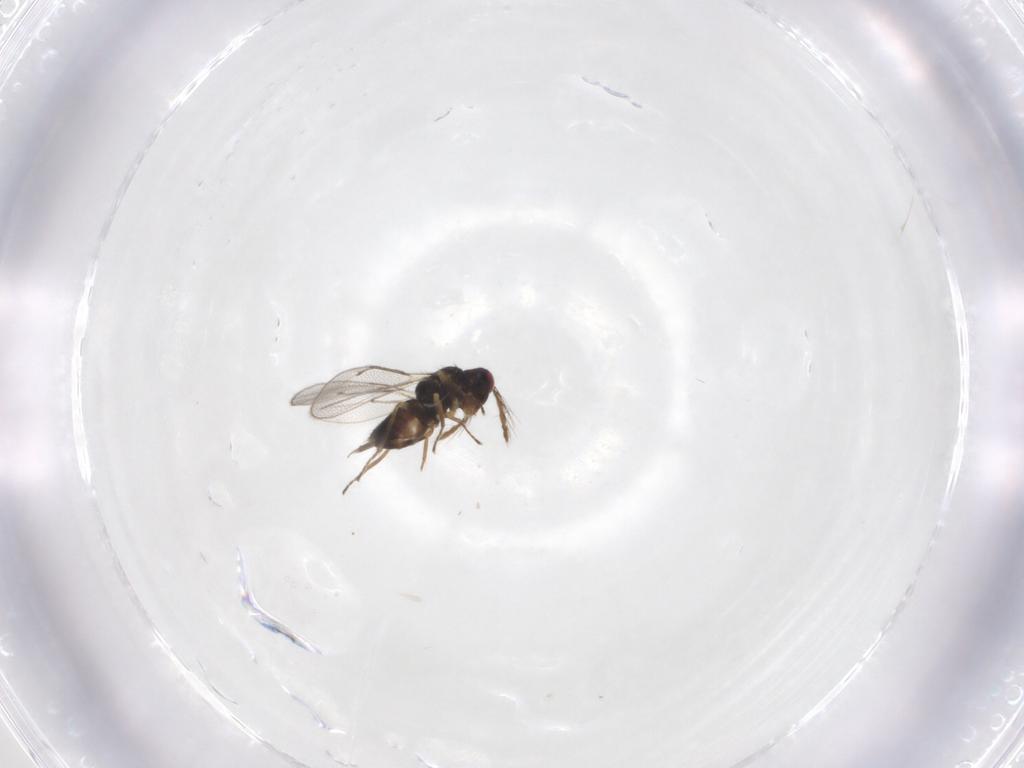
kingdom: Animalia
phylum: Arthropoda
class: Insecta
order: Hymenoptera
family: Eulophidae
